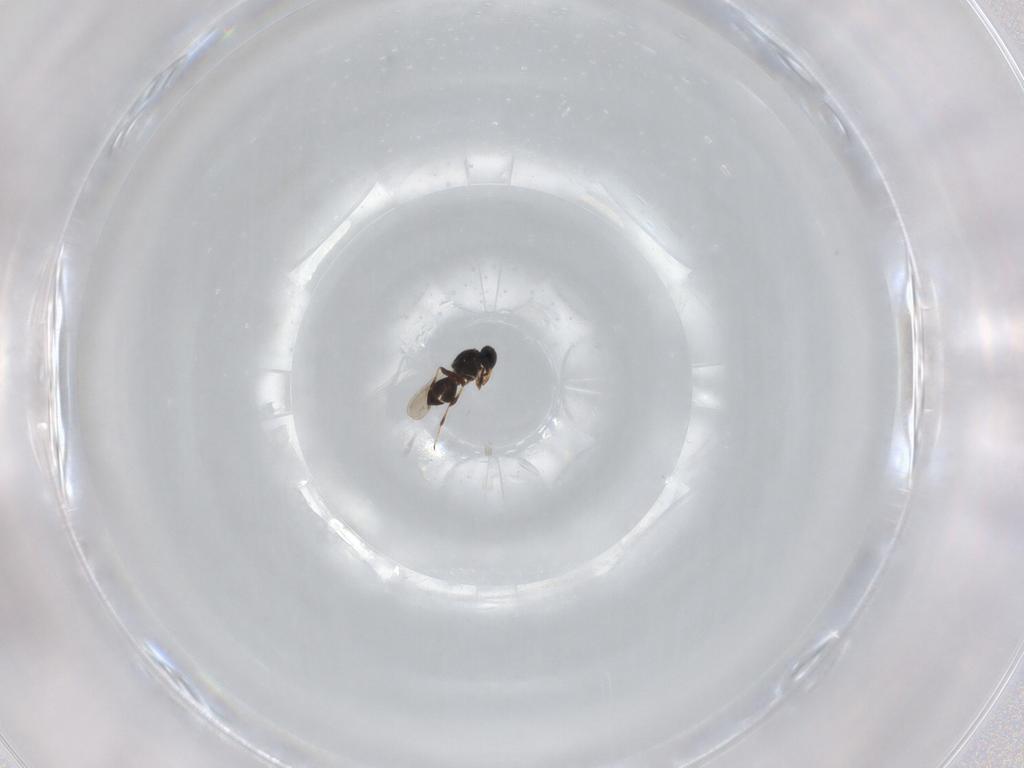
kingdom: Animalia
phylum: Arthropoda
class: Insecta
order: Hymenoptera
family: Platygastridae
